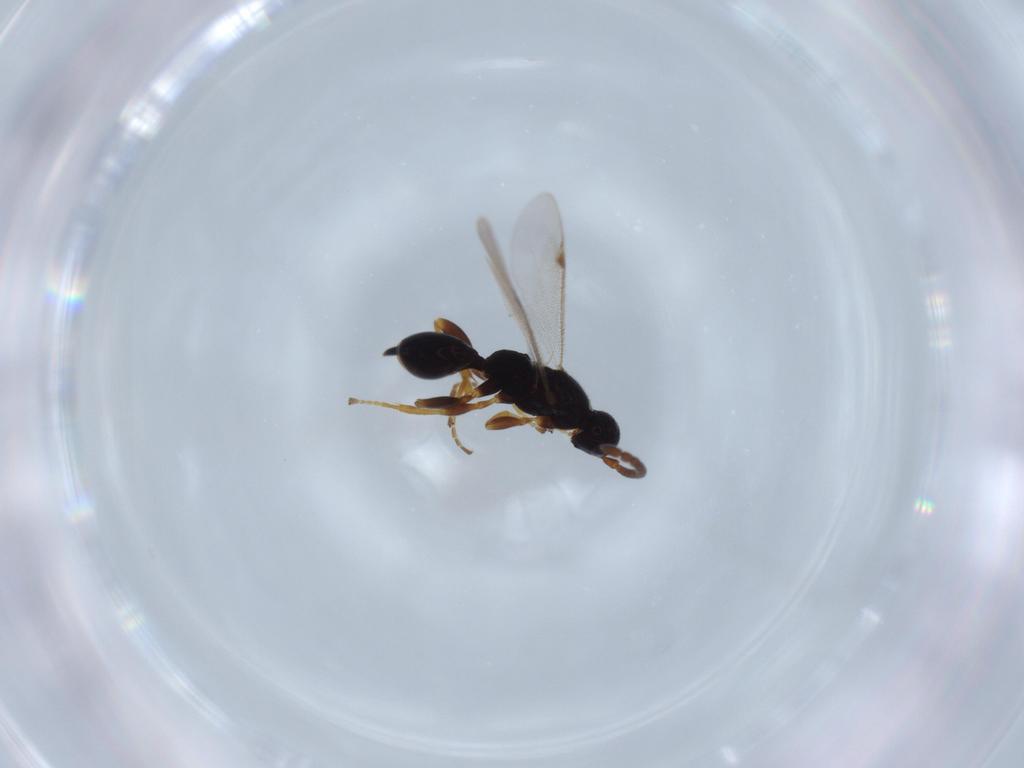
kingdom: Animalia
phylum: Arthropoda
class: Insecta
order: Hymenoptera
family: Proctotrupidae
